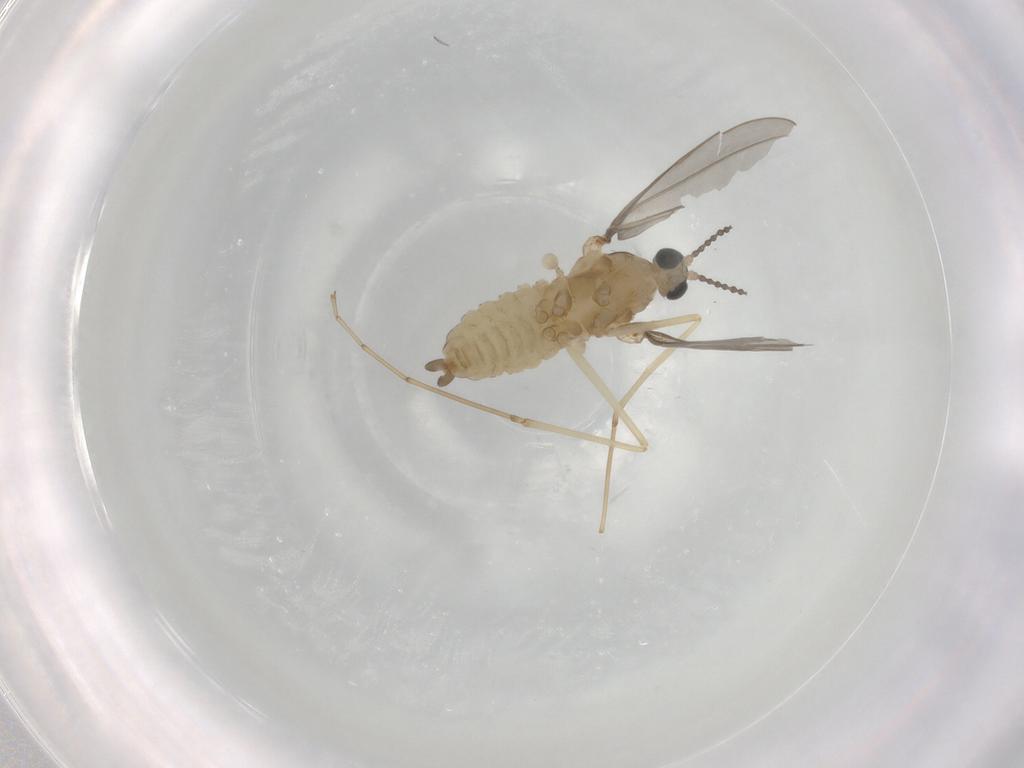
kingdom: Animalia
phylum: Arthropoda
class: Insecta
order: Diptera
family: Cecidomyiidae
